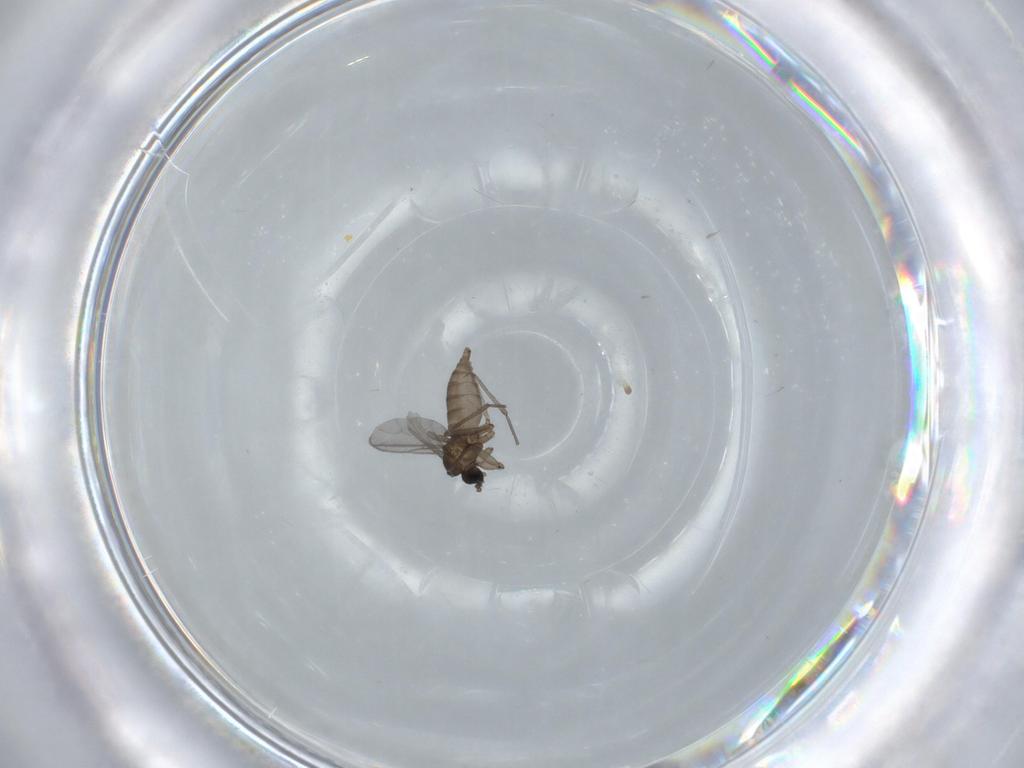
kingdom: Animalia
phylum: Arthropoda
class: Insecta
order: Diptera
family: Sciaridae
